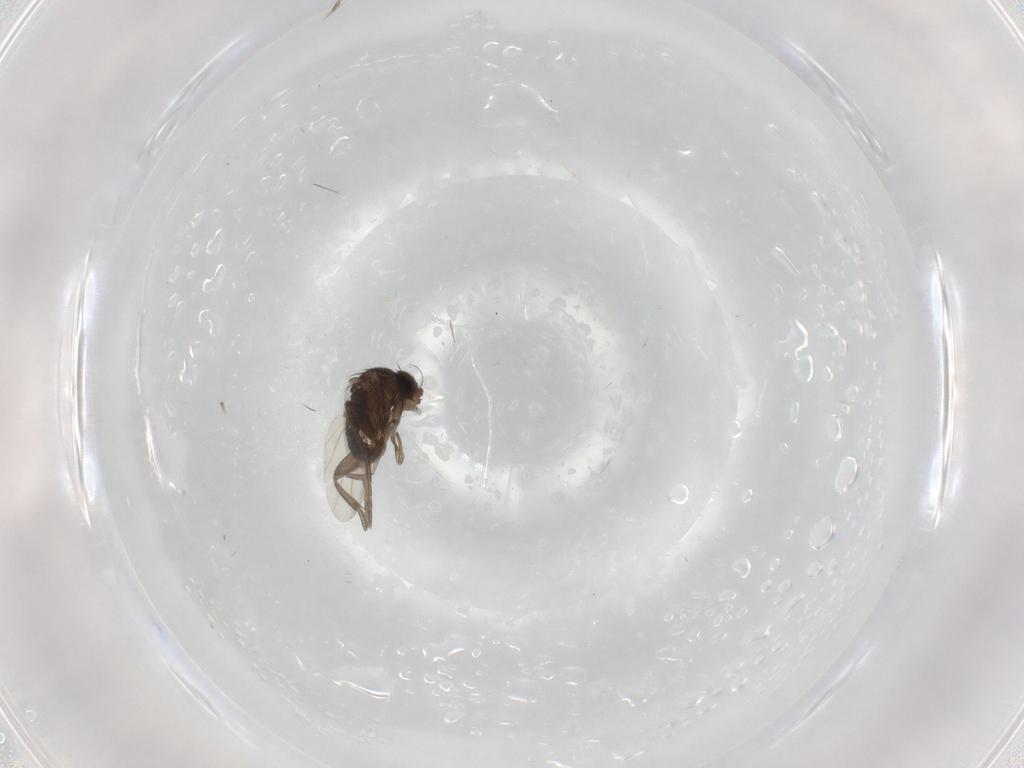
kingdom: Animalia
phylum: Arthropoda
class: Insecta
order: Diptera
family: Phoridae
